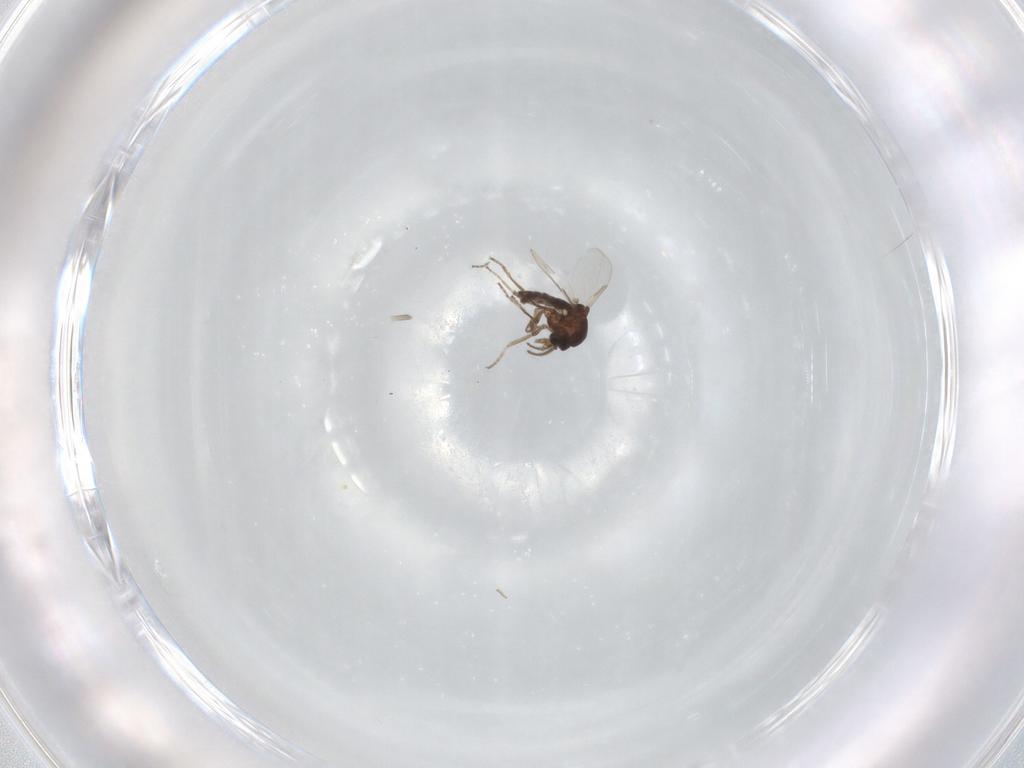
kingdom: Animalia
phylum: Arthropoda
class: Insecta
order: Diptera
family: Ceratopogonidae
